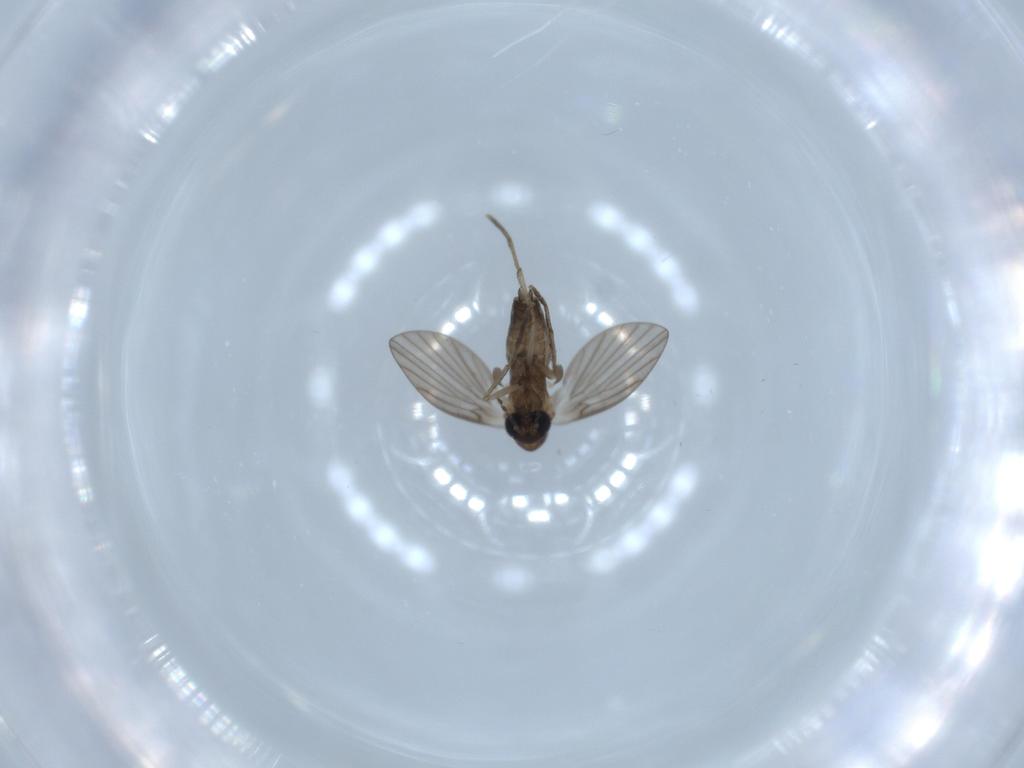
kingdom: Animalia
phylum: Arthropoda
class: Insecta
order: Diptera
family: Psychodidae
